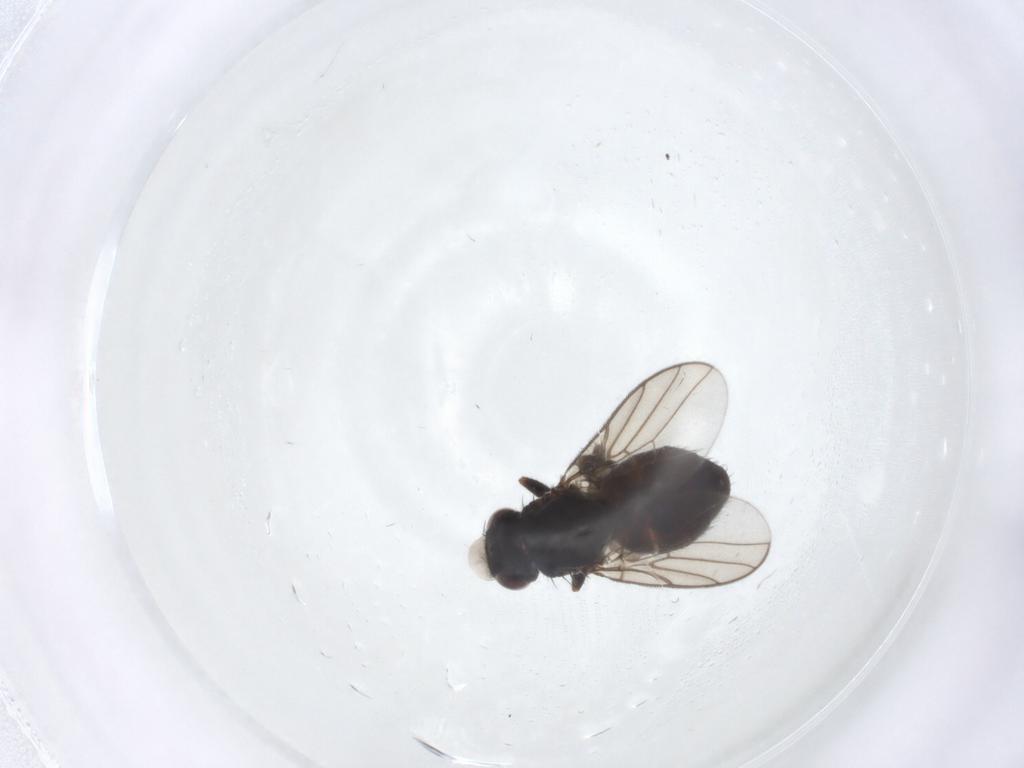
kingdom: Animalia
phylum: Arthropoda
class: Insecta
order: Diptera
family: Chloropidae
